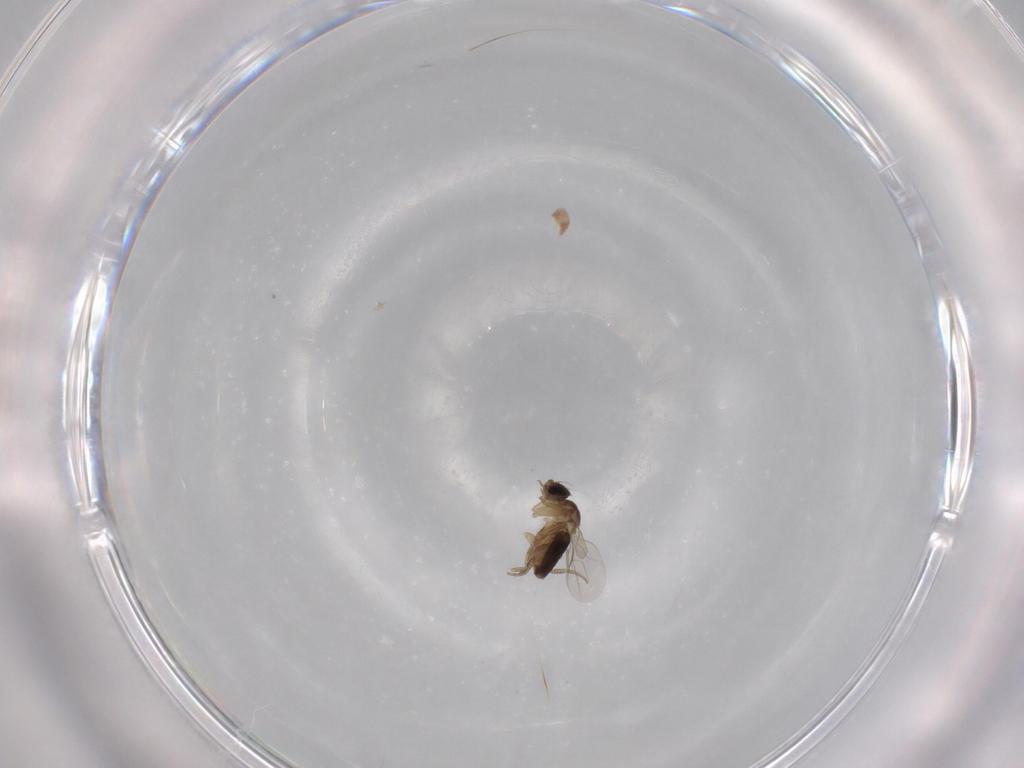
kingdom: Animalia
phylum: Arthropoda
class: Insecta
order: Diptera
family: Phoridae
